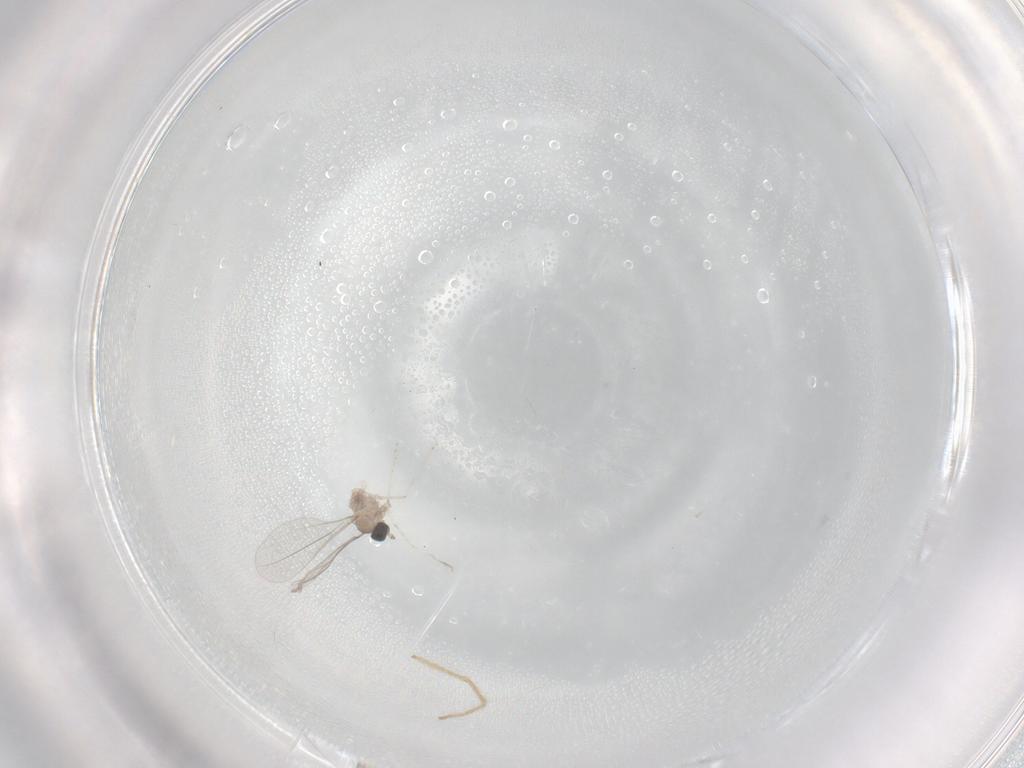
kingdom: Animalia
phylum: Arthropoda
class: Insecta
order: Diptera
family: Chironomidae
